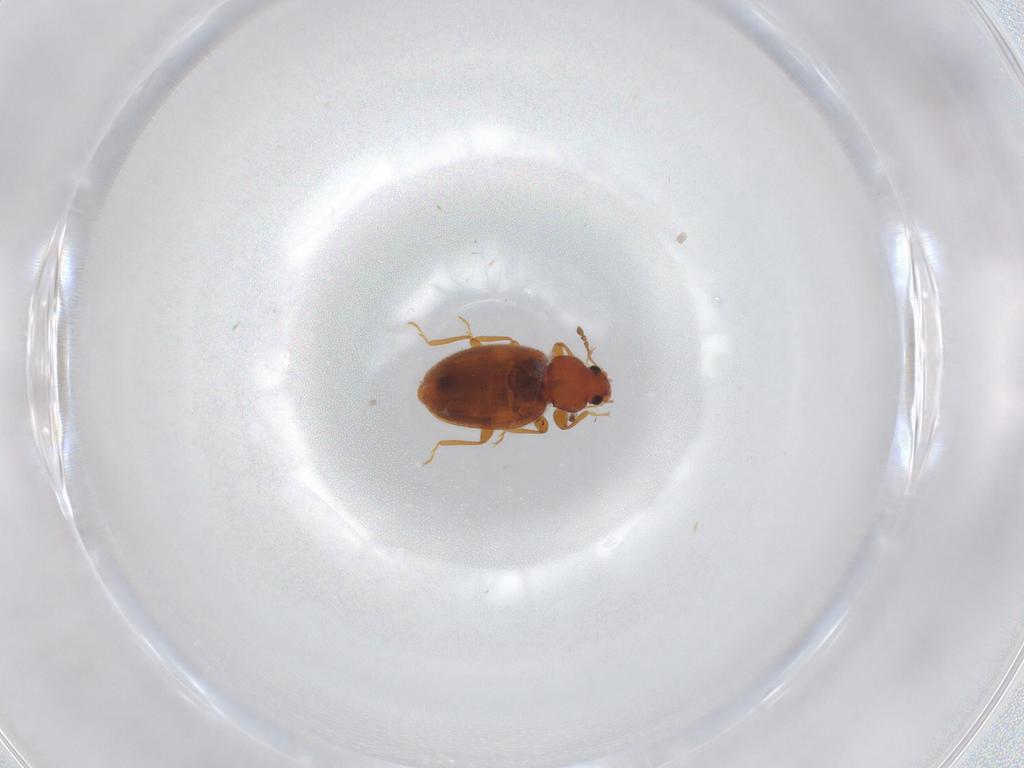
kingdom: Animalia
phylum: Arthropoda
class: Insecta
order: Coleoptera
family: Latridiidae
